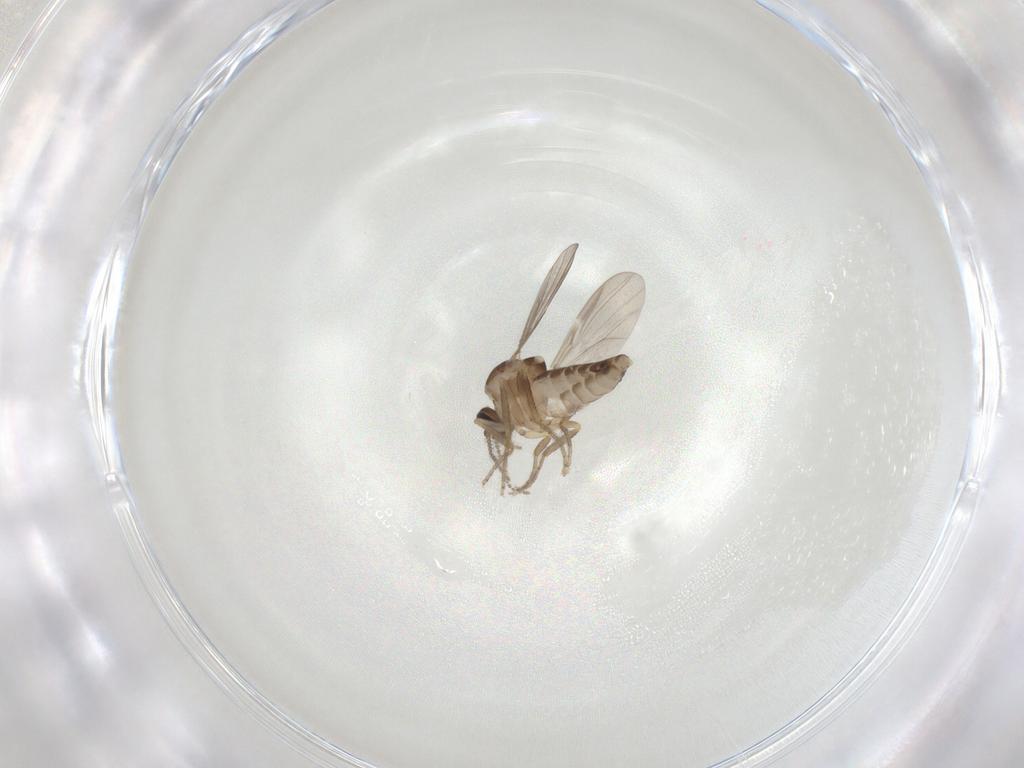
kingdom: Animalia
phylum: Arthropoda
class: Insecta
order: Diptera
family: Ceratopogonidae
